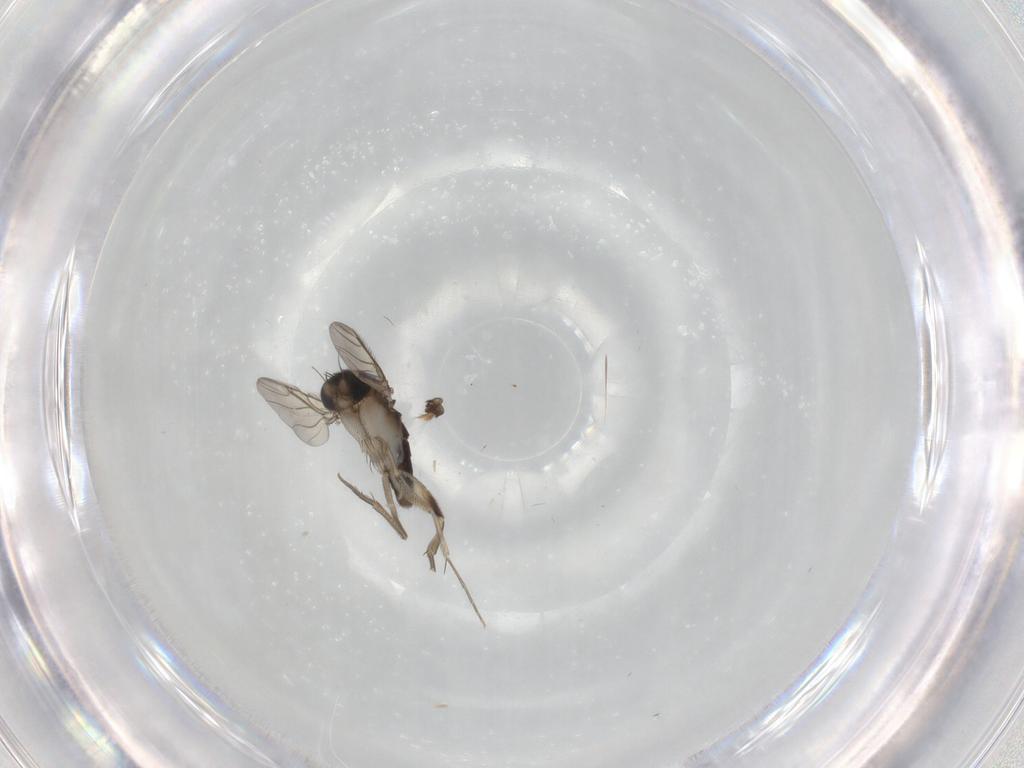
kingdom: Animalia
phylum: Arthropoda
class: Insecta
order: Diptera
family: Phoridae
